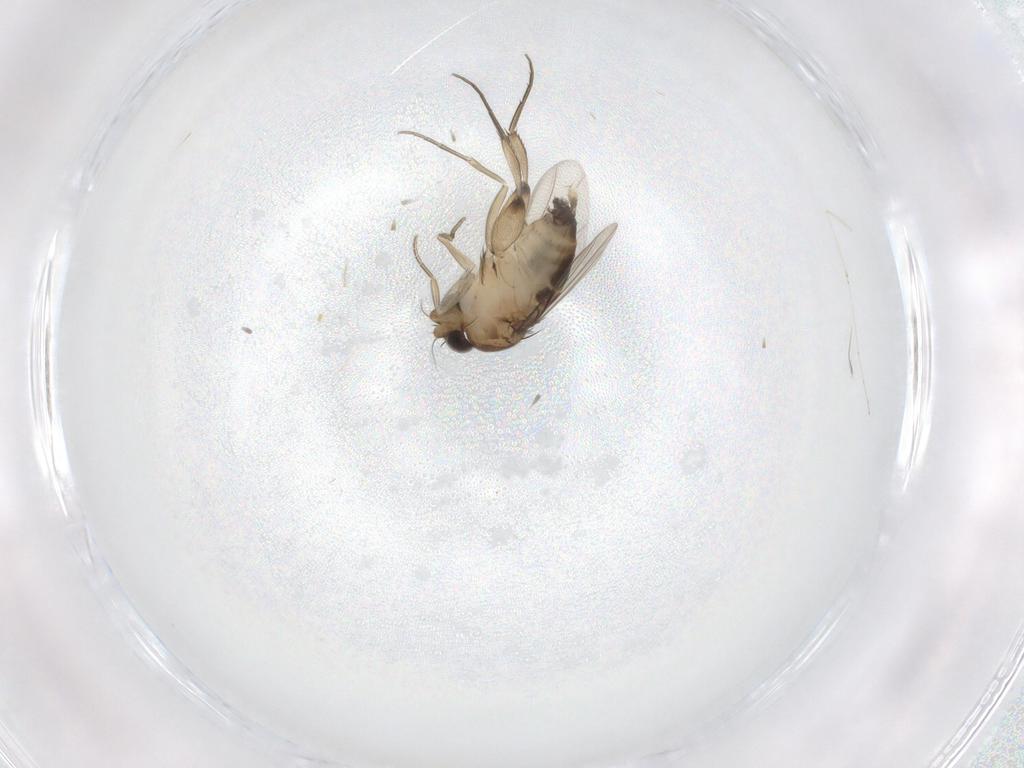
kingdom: Animalia
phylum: Arthropoda
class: Insecta
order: Diptera
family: Phoridae
